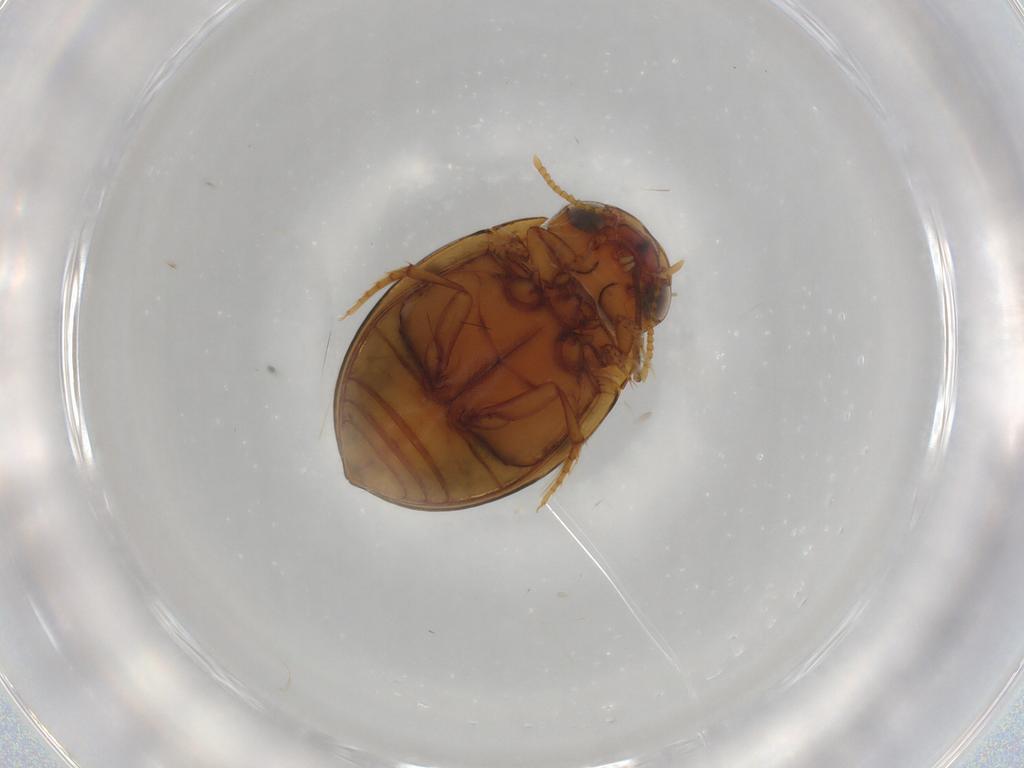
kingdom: Animalia
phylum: Arthropoda
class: Insecta
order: Coleoptera
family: Dytiscidae
